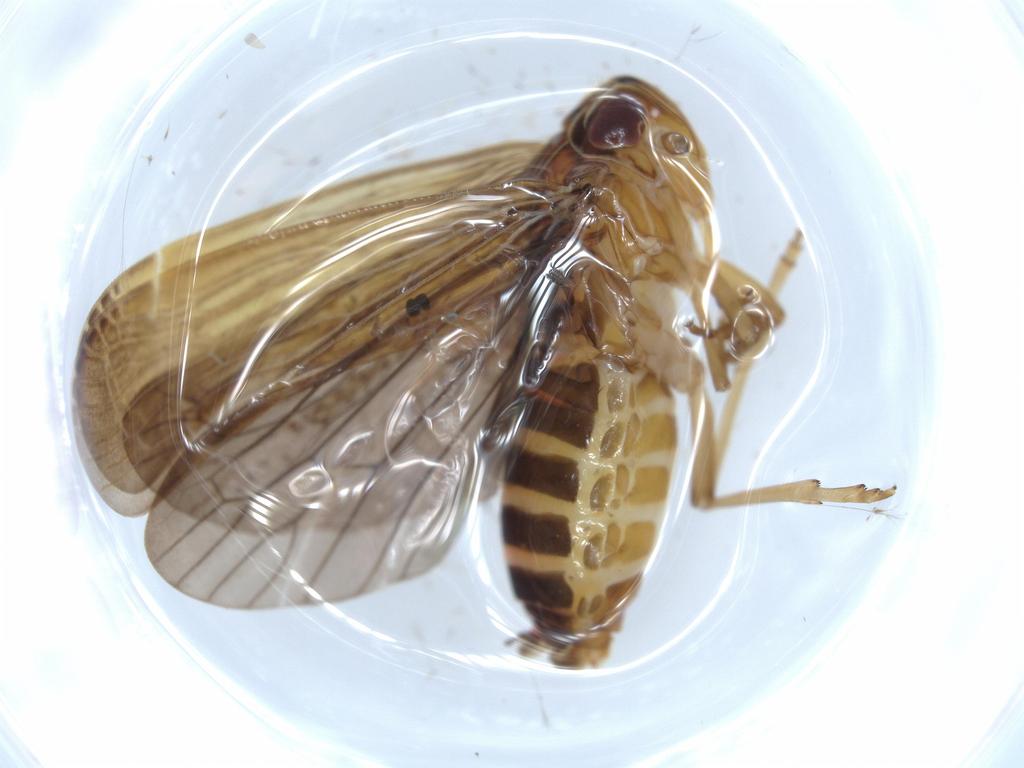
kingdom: Animalia
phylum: Arthropoda
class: Insecta
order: Hemiptera
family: Achilidae
